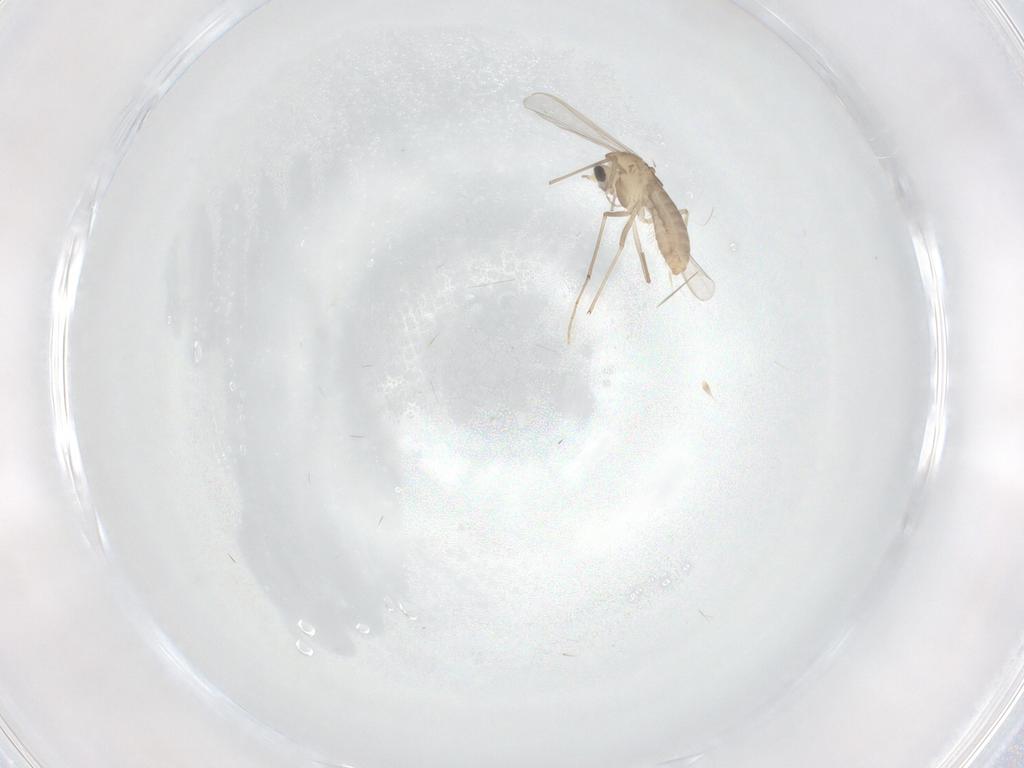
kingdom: Animalia
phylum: Arthropoda
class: Insecta
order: Diptera
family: Chironomidae
